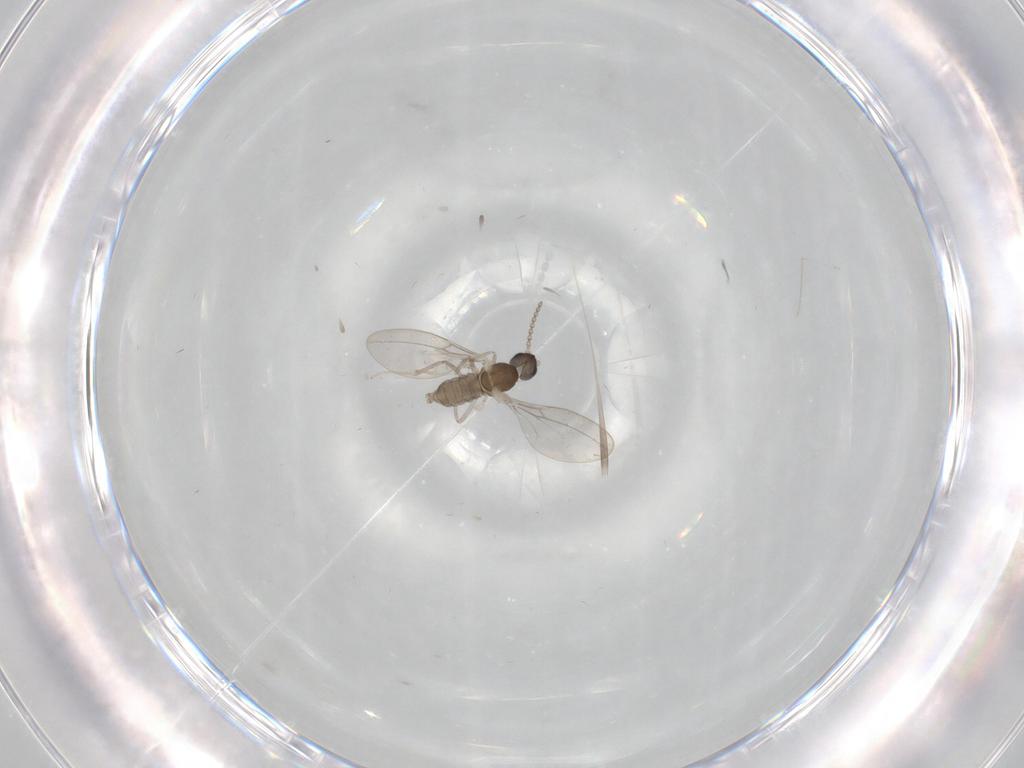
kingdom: Animalia
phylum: Arthropoda
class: Insecta
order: Diptera
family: Cecidomyiidae
